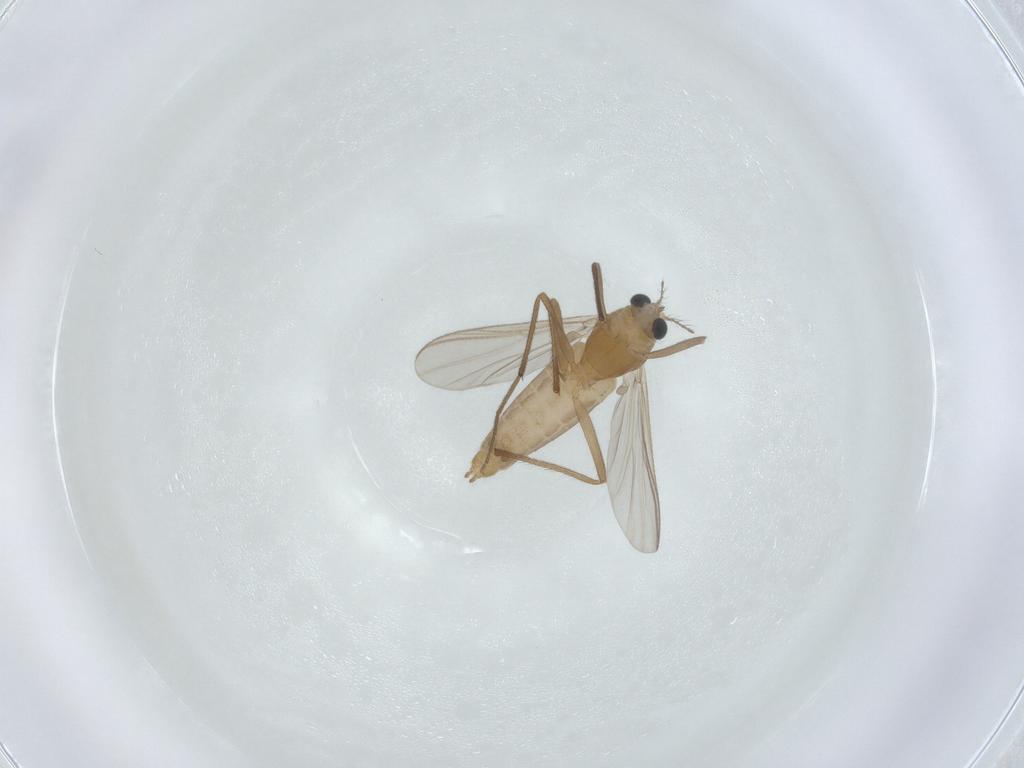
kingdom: Animalia
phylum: Arthropoda
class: Insecta
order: Diptera
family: Chironomidae
